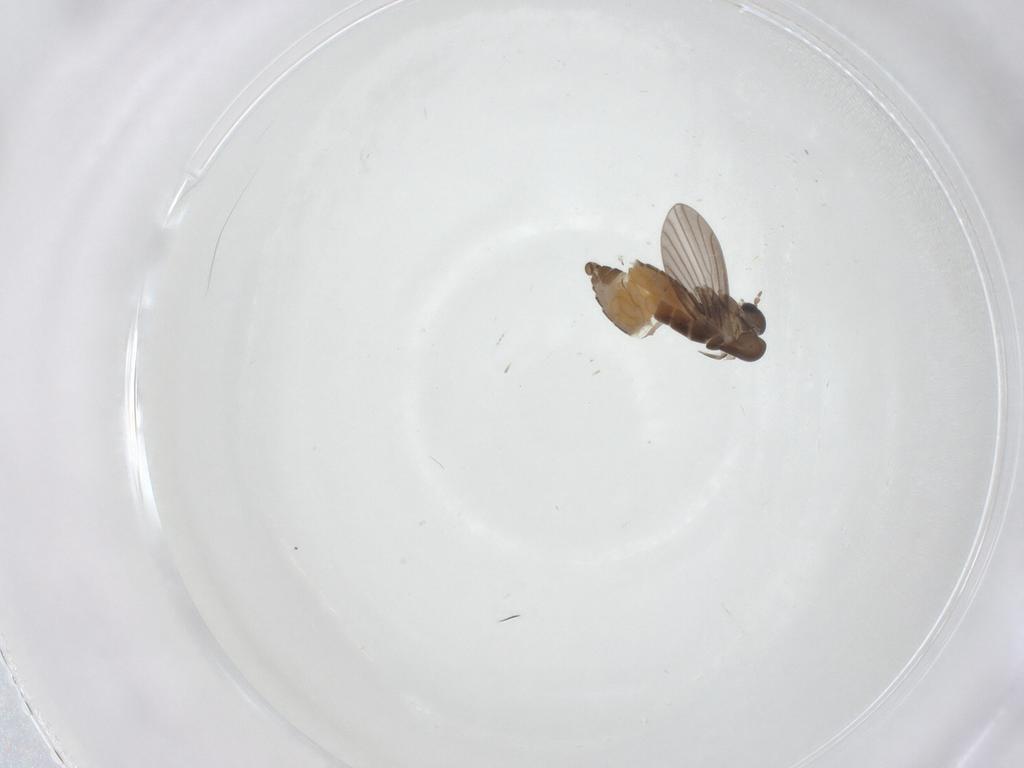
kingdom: Animalia
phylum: Arthropoda
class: Insecta
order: Diptera
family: Psychodidae
